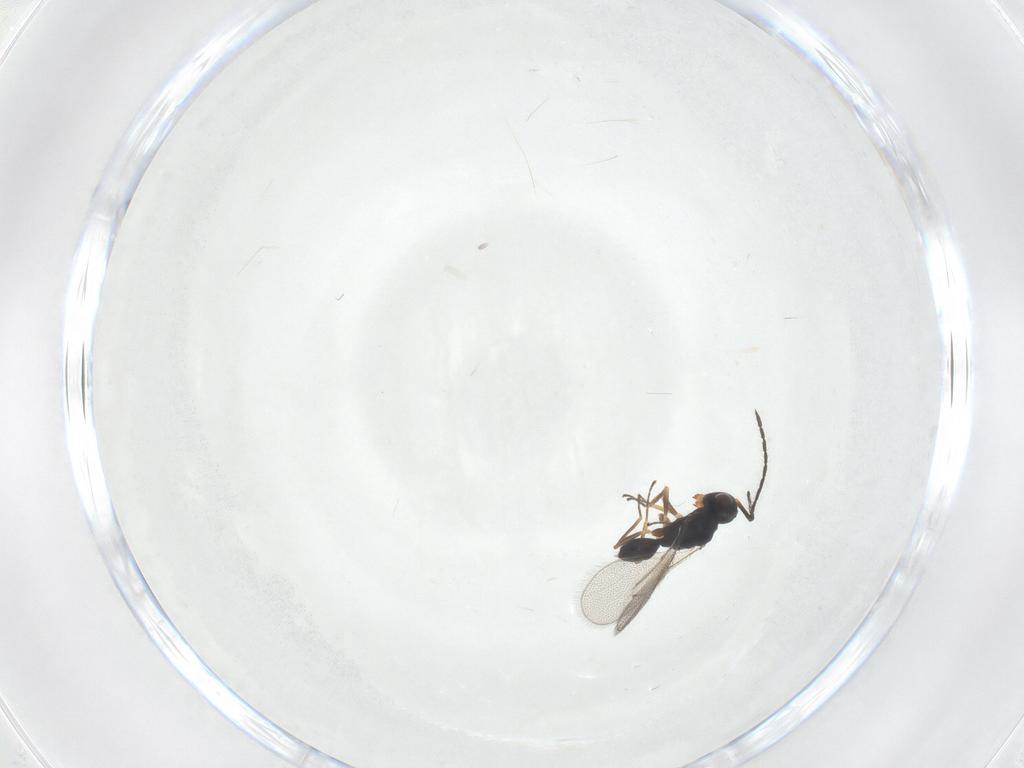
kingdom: Animalia
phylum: Arthropoda
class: Insecta
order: Hymenoptera
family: Pteromalidae
